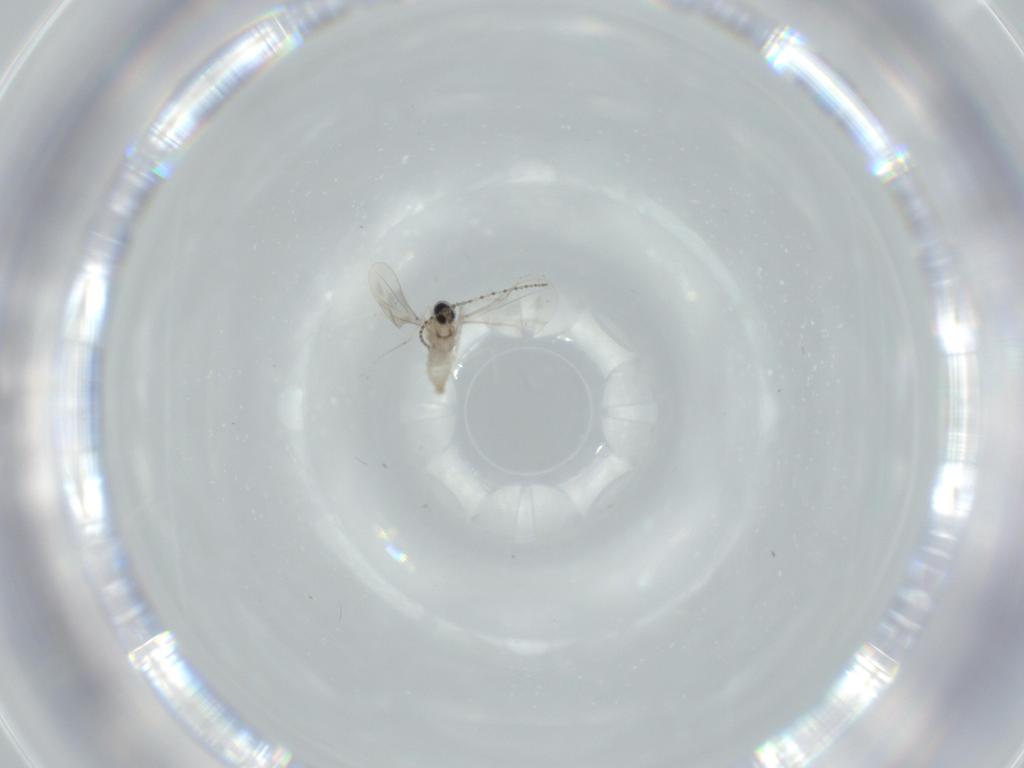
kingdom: Animalia
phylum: Arthropoda
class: Insecta
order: Diptera
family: Cecidomyiidae
